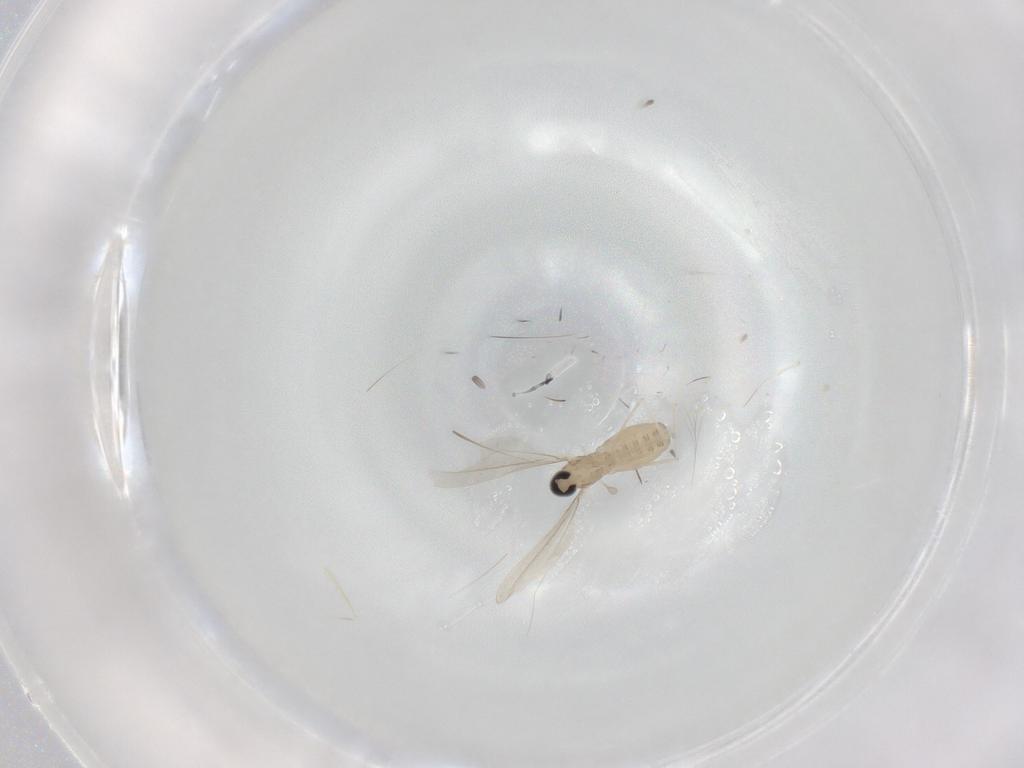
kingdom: Animalia
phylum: Arthropoda
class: Insecta
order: Diptera
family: Cecidomyiidae
